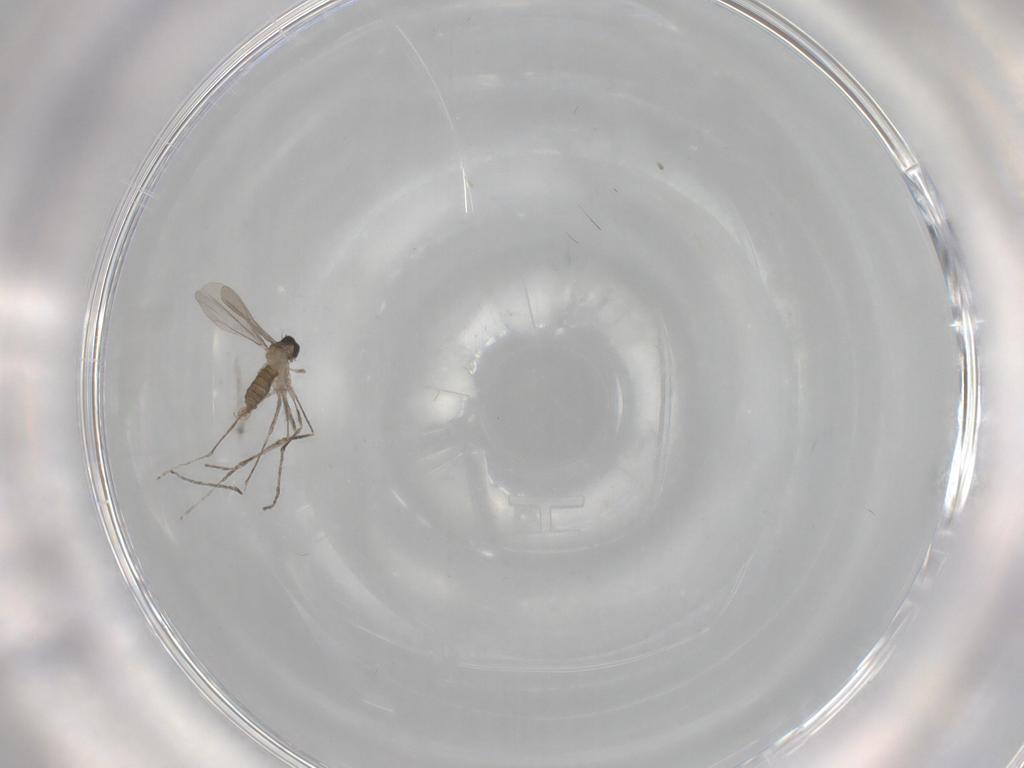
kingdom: Animalia
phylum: Arthropoda
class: Insecta
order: Diptera
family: Cecidomyiidae
